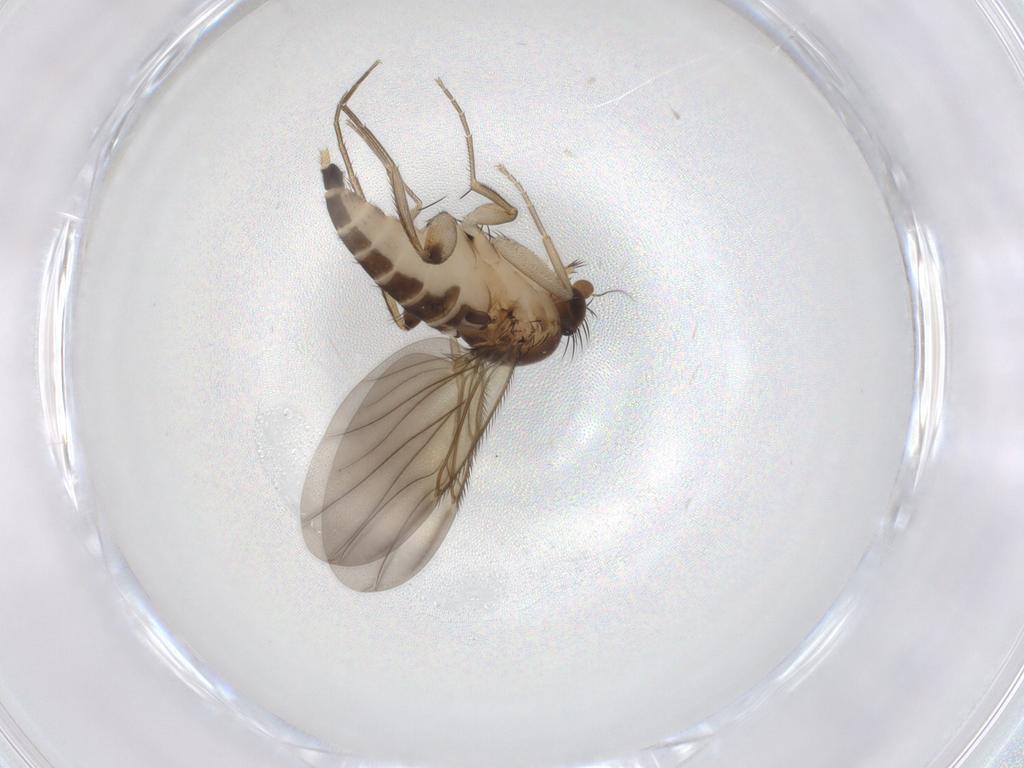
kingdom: Animalia
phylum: Arthropoda
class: Insecta
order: Diptera
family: Phoridae
